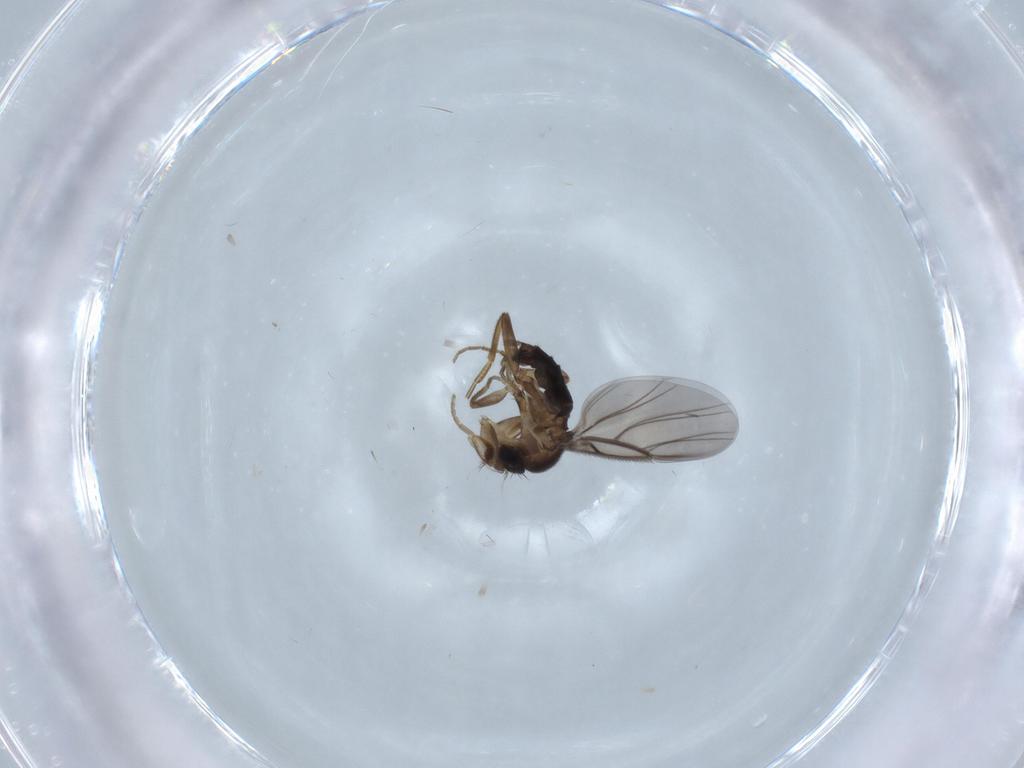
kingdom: Animalia
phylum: Arthropoda
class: Insecta
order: Diptera
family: Phoridae
